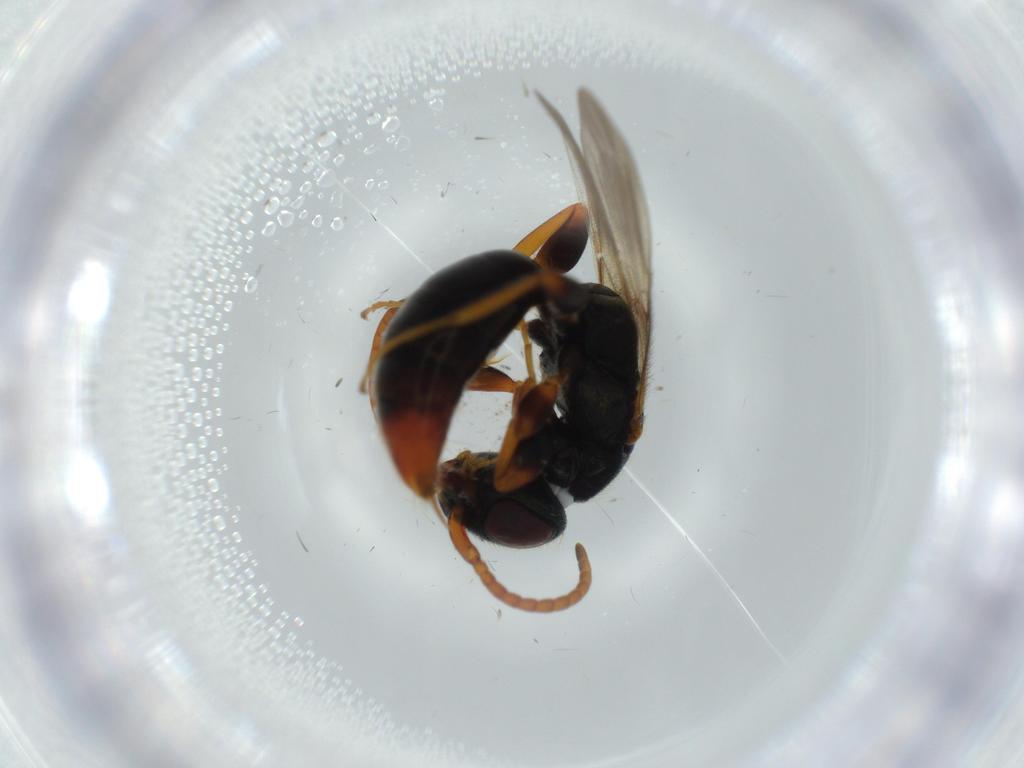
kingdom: Animalia
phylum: Arthropoda
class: Insecta
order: Hymenoptera
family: Bethylidae
